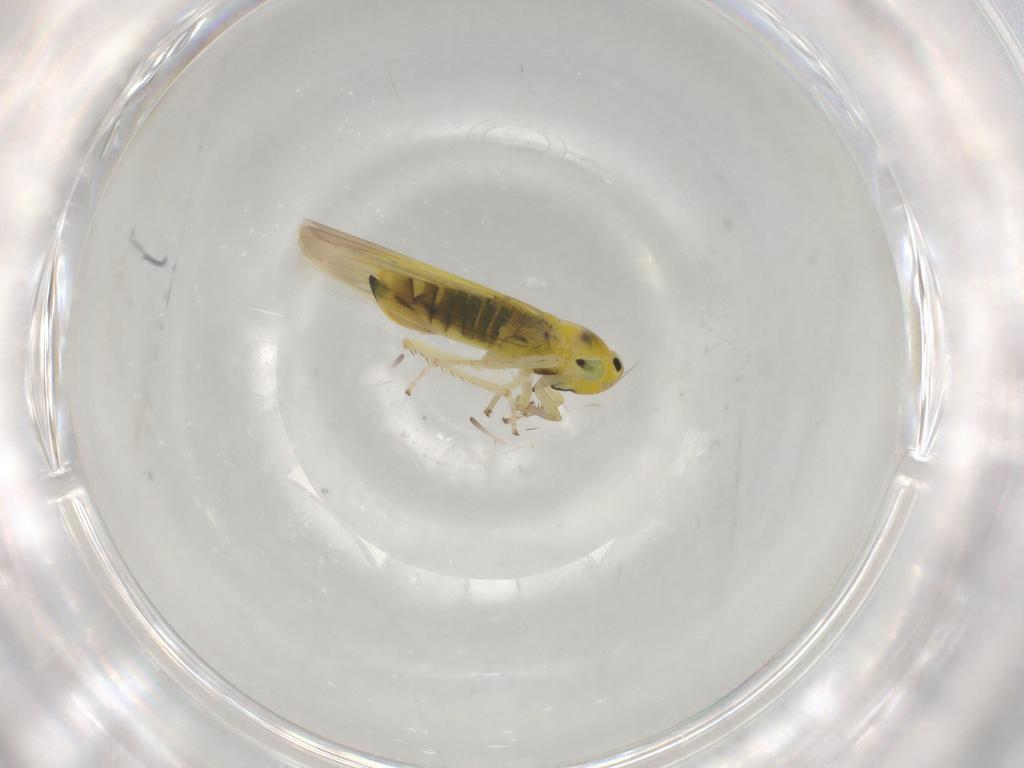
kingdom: Animalia
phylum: Arthropoda
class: Insecta
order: Hemiptera
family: Cicadellidae
